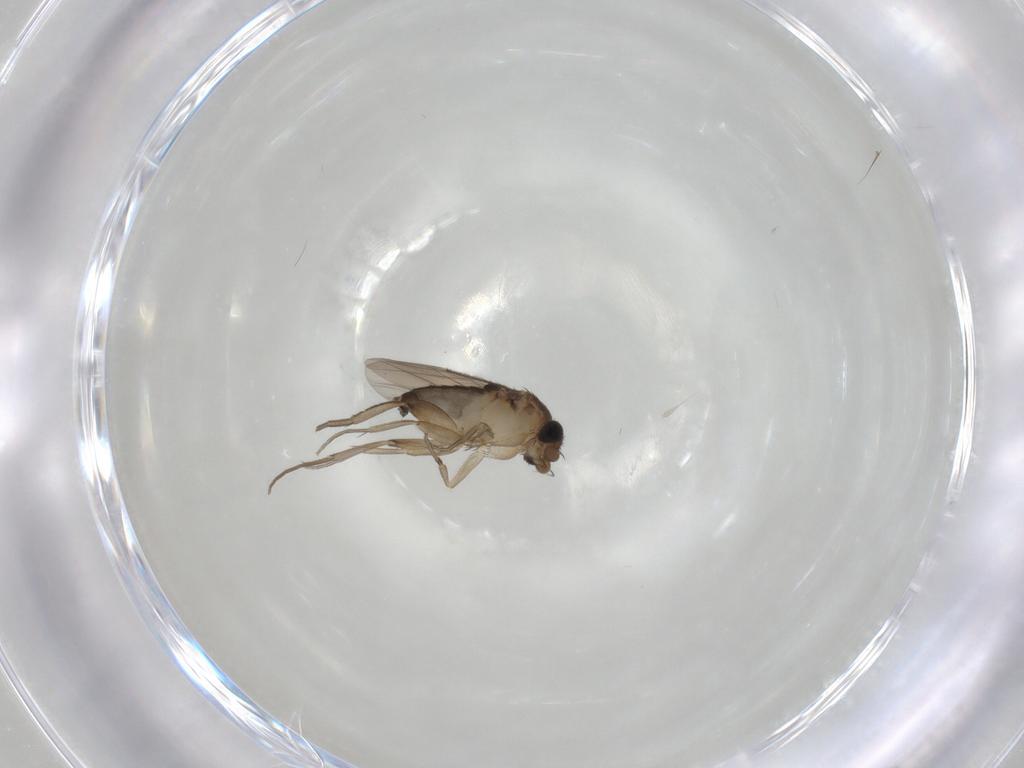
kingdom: Animalia
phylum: Arthropoda
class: Insecta
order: Diptera
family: Phoridae
